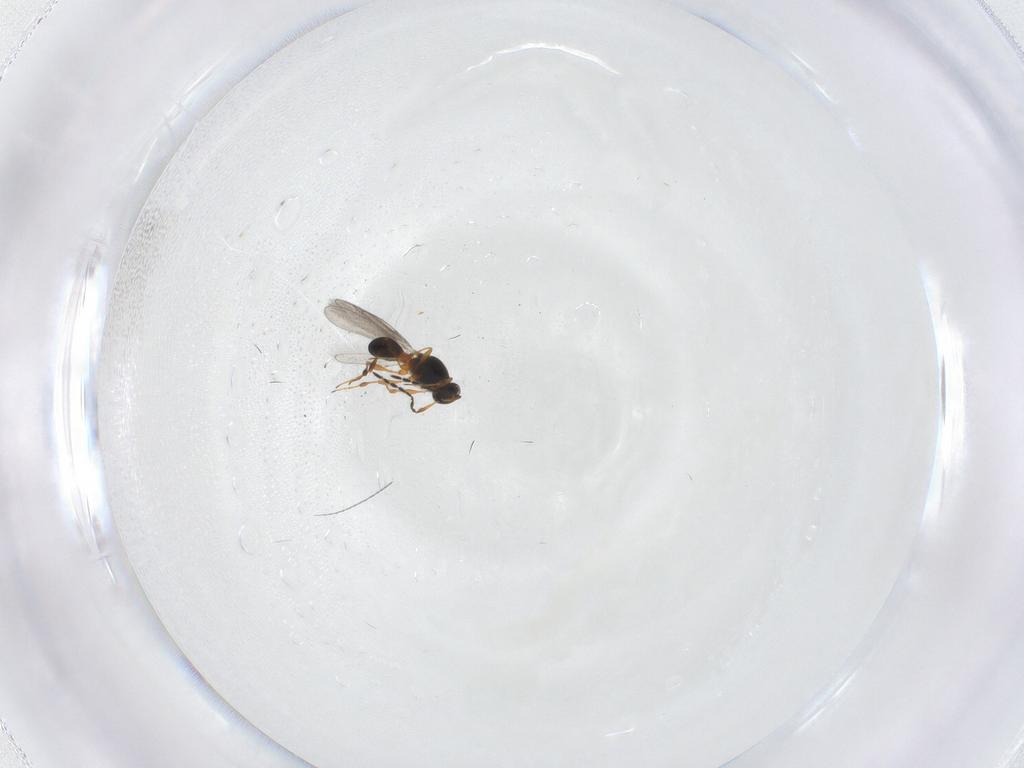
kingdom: Animalia
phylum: Arthropoda
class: Insecta
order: Hymenoptera
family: Platygastridae
